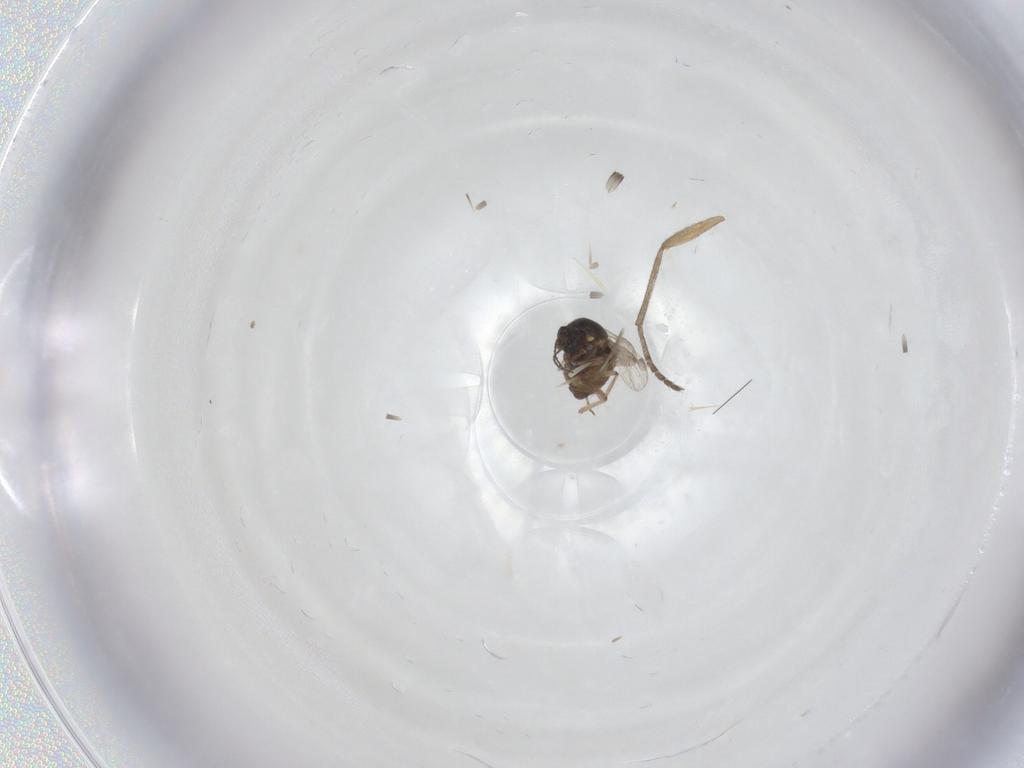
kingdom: Animalia
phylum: Arthropoda
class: Insecta
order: Diptera
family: Ceratopogonidae
